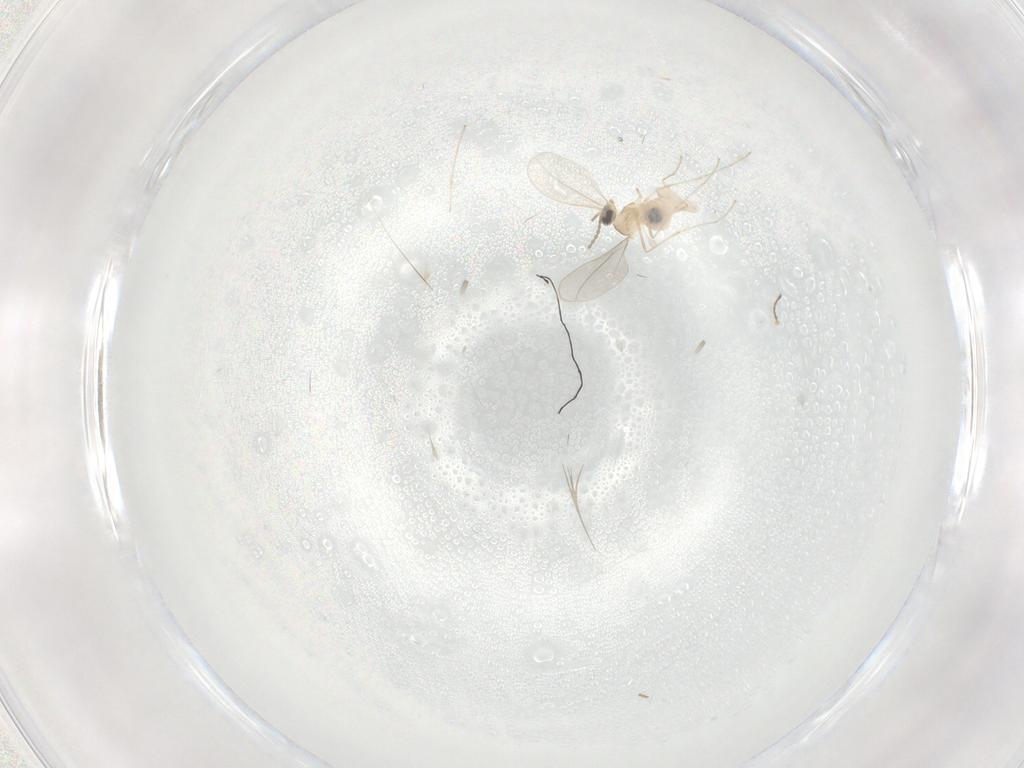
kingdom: Animalia
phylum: Arthropoda
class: Insecta
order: Diptera
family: Chironomidae
